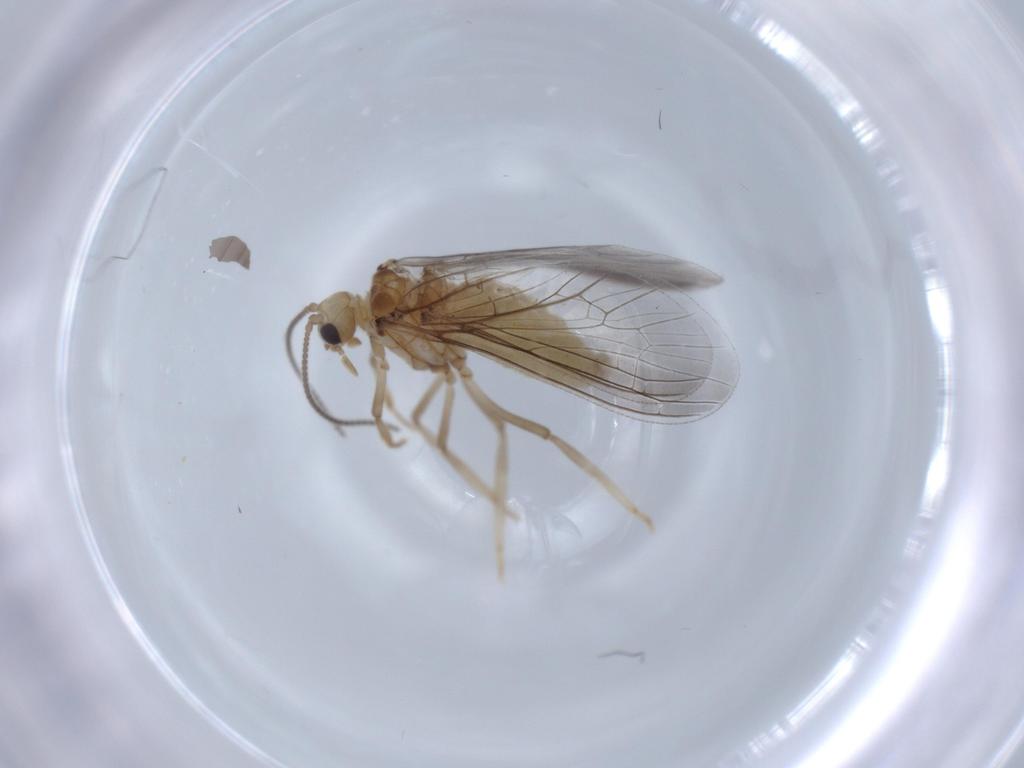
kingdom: Animalia
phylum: Arthropoda
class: Insecta
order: Neuroptera
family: Coniopterygidae
